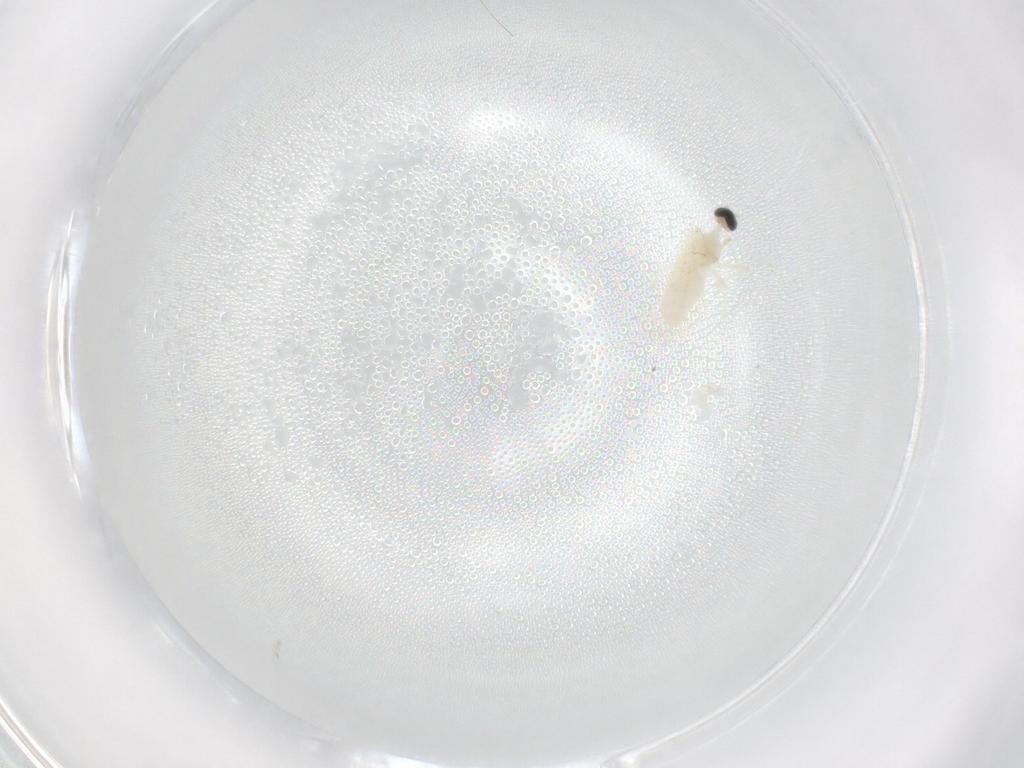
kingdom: Animalia
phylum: Arthropoda
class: Insecta
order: Diptera
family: Cecidomyiidae
